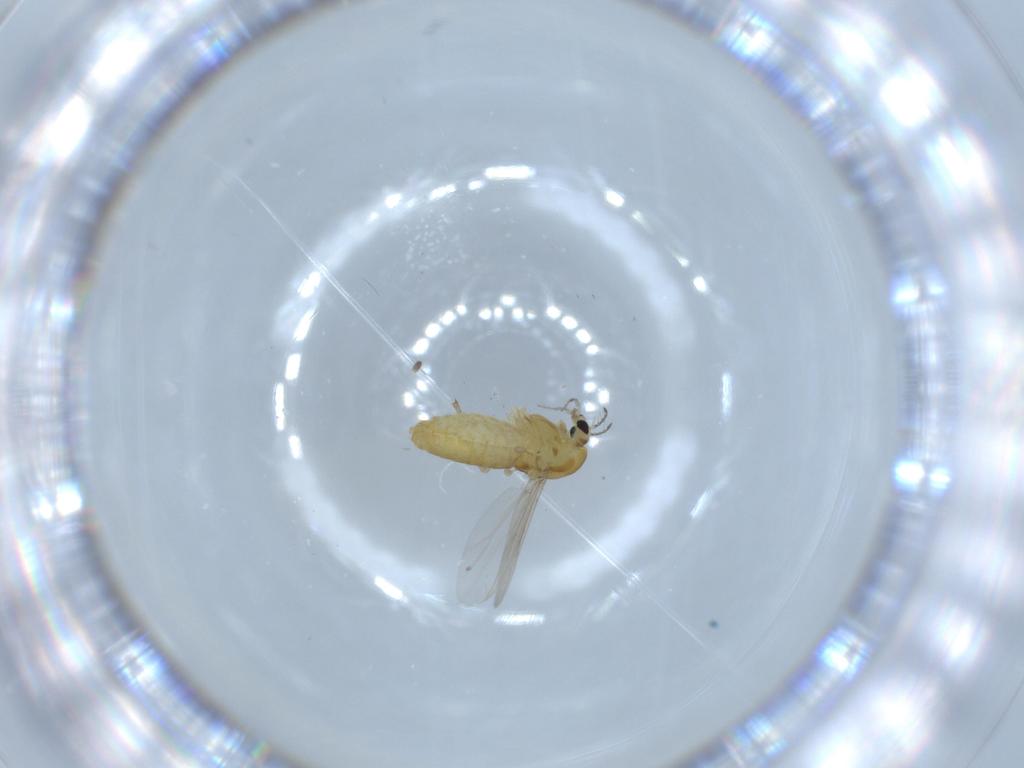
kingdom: Animalia
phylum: Arthropoda
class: Insecta
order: Diptera
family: Chironomidae
